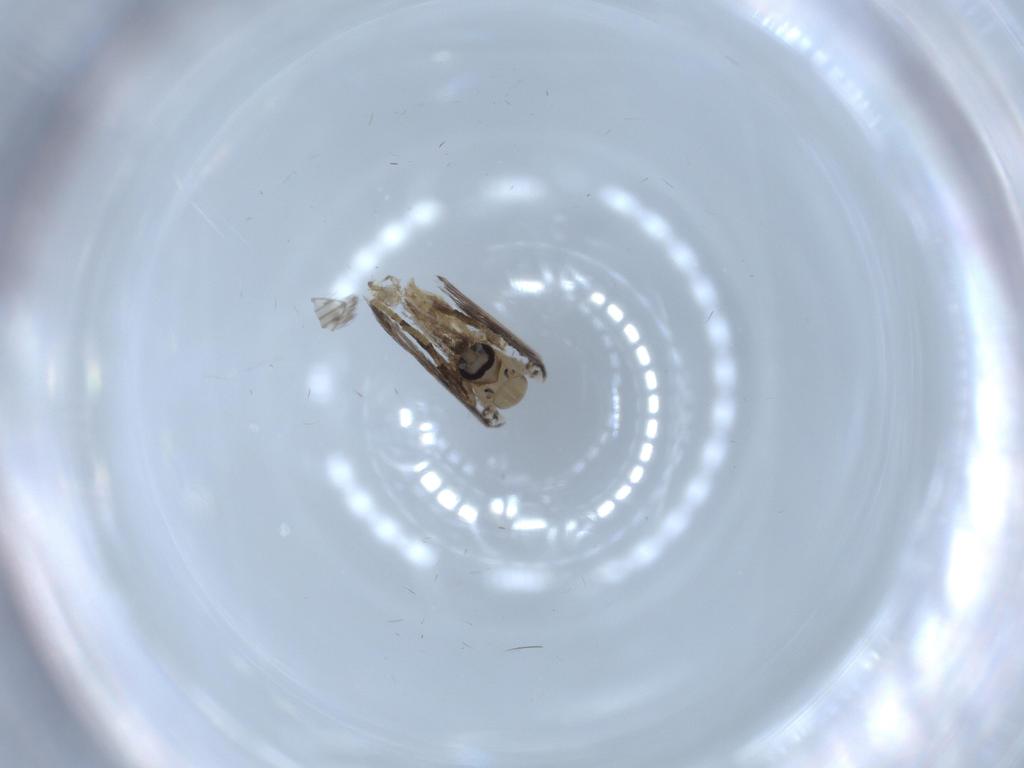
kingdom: Animalia
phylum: Arthropoda
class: Insecta
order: Diptera
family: Psychodidae
